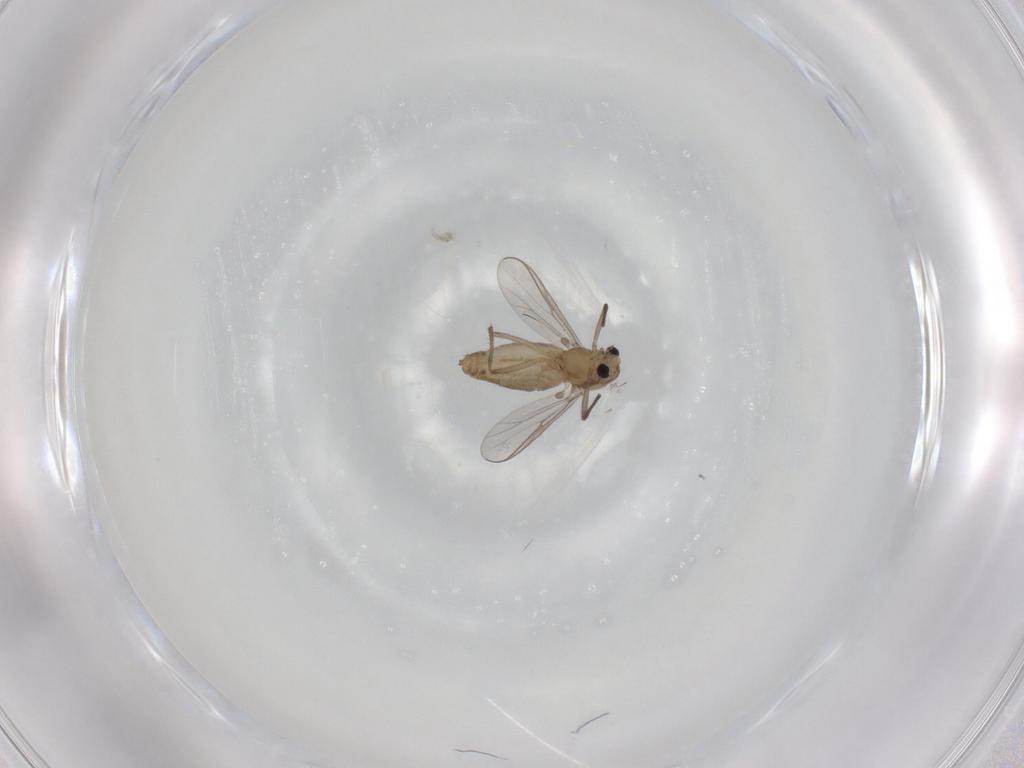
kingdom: Animalia
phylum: Arthropoda
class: Insecta
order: Diptera
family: Chironomidae
